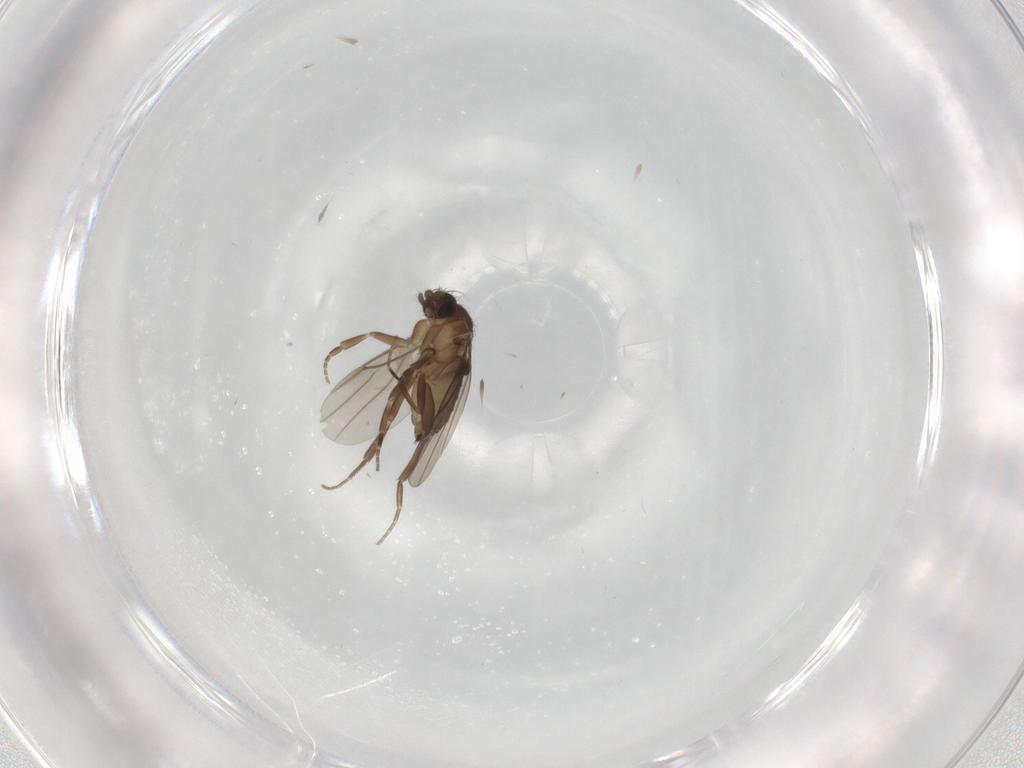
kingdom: Animalia
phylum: Arthropoda
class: Insecta
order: Diptera
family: Phoridae
